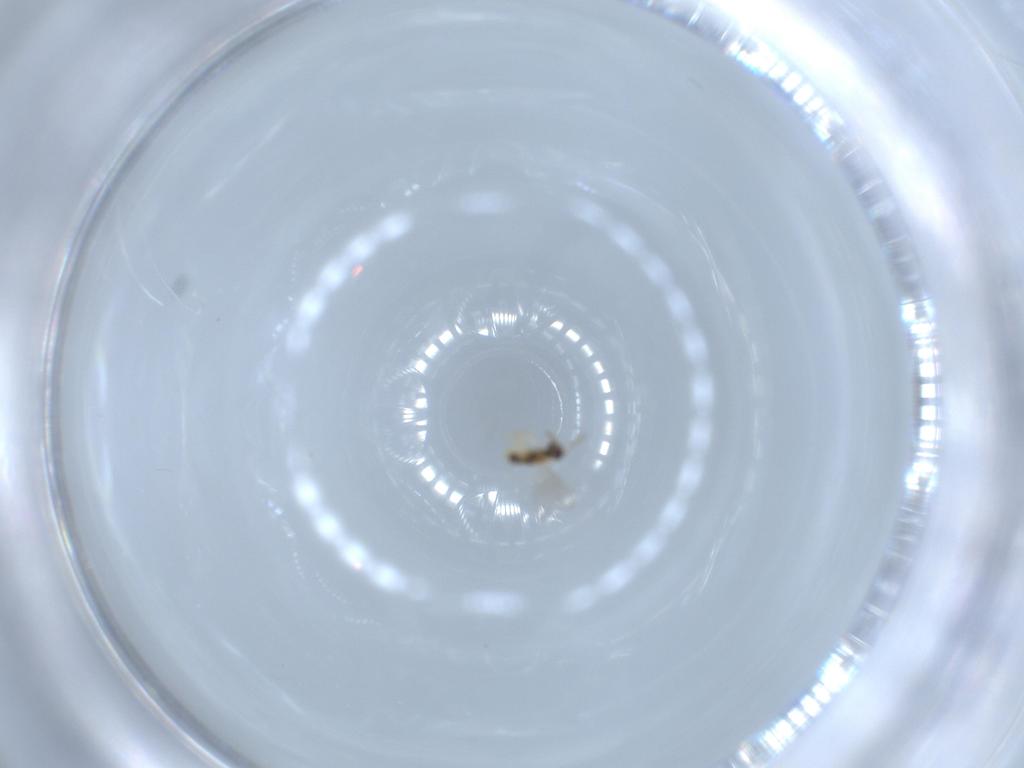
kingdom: Animalia
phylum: Arthropoda
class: Insecta
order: Hymenoptera
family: Aphelinidae
